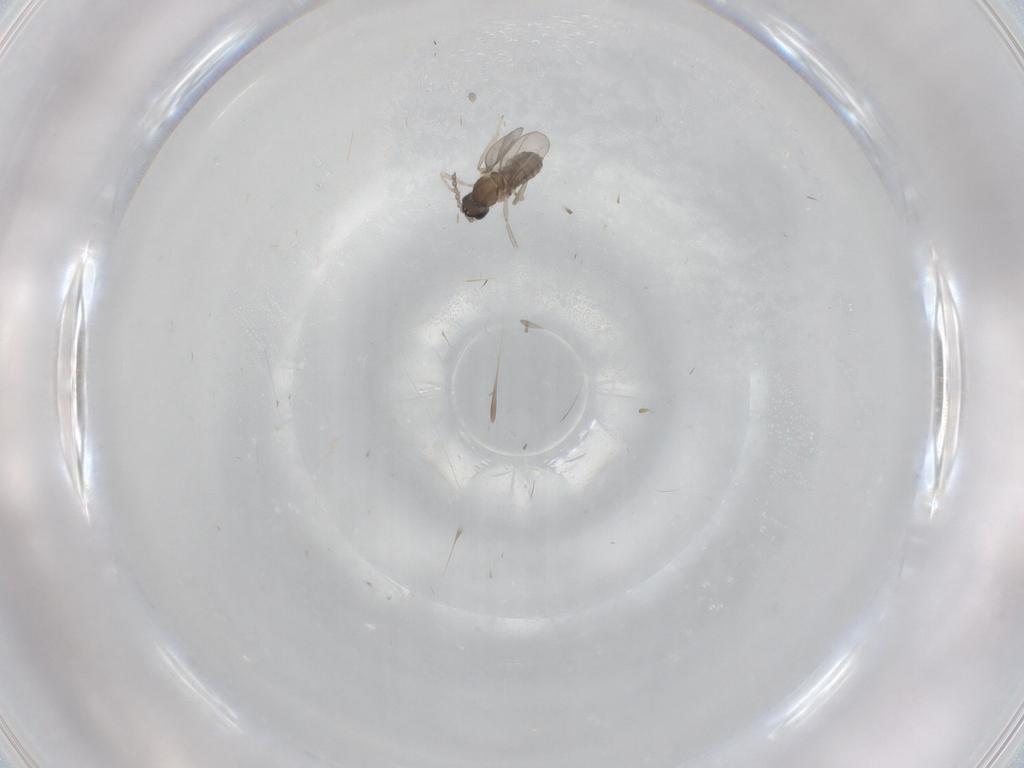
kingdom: Animalia
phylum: Arthropoda
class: Insecta
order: Diptera
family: Cecidomyiidae
